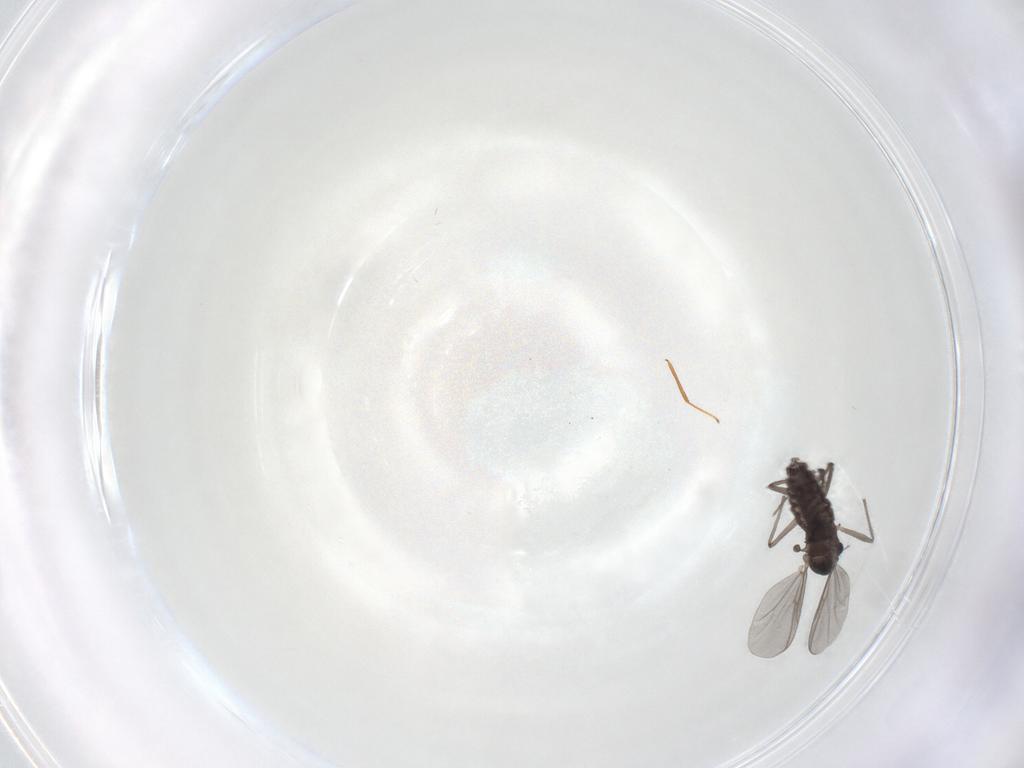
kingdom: Animalia
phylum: Arthropoda
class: Insecta
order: Diptera
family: Chironomidae
